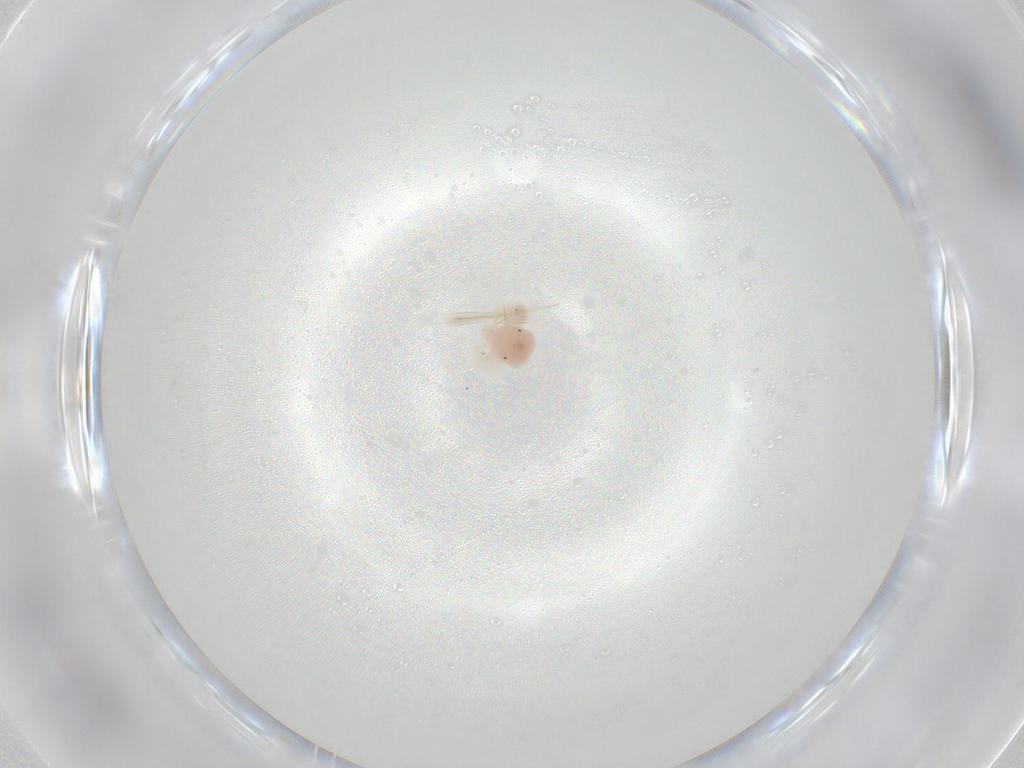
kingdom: Animalia
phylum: Arthropoda
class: Arachnida
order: Trombidiformes
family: Anystidae
